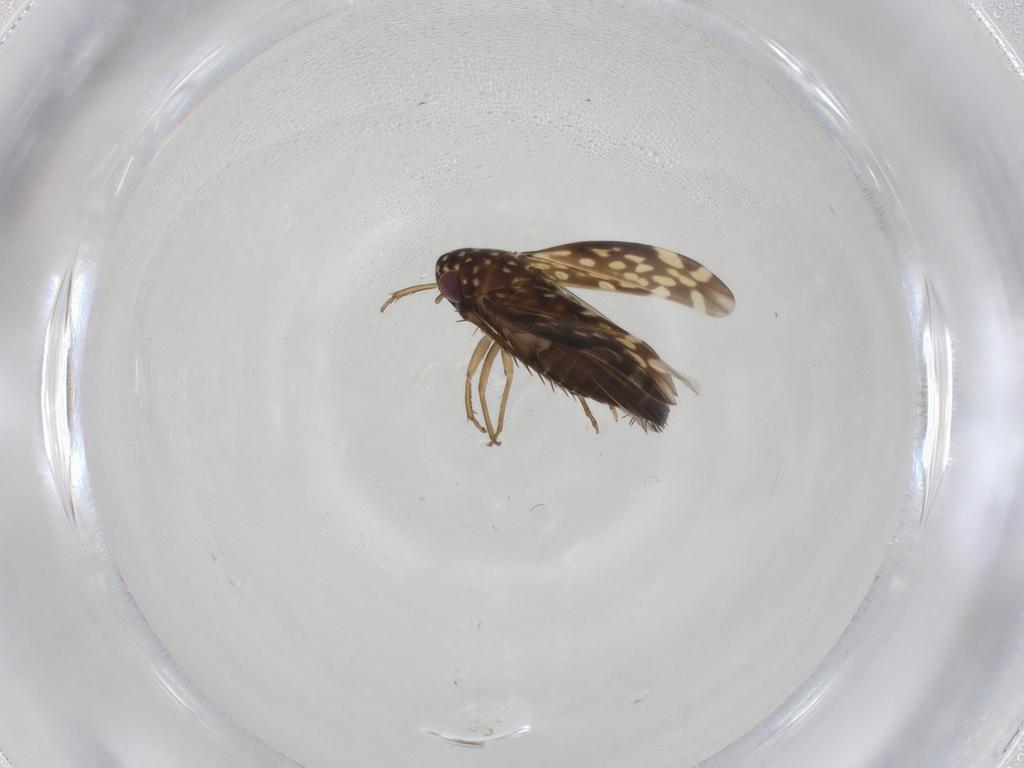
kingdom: Animalia
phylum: Arthropoda
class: Insecta
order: Hemiptera
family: Cicadellidae
